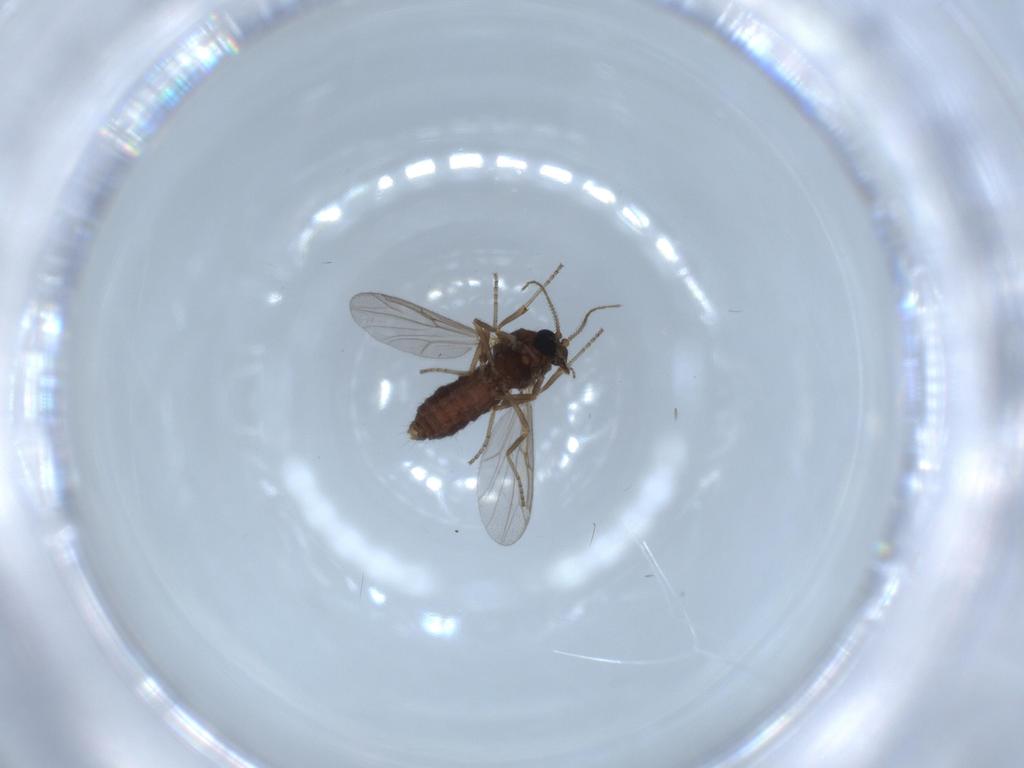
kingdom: Animalia
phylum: Arthropoda
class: Insecta
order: Diptera
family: Ceratopogonidae
